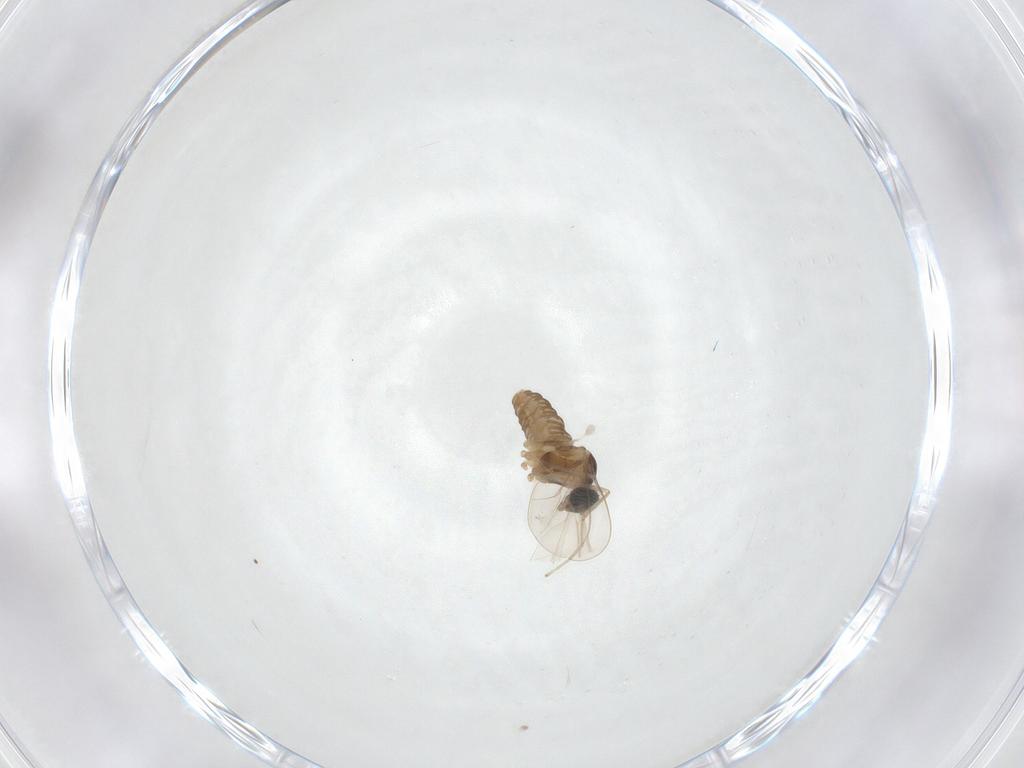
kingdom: Animalia
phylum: Arthropoda
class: Insecta
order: Diptera
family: Cecidomyiidae
